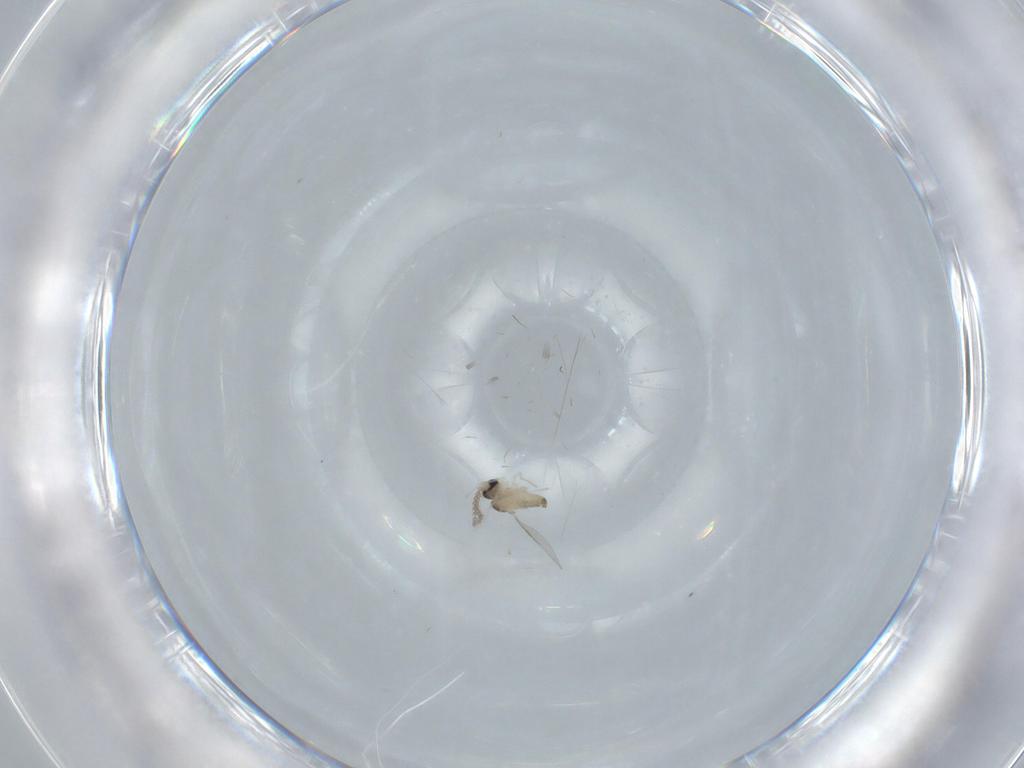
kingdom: Animalia
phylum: Arthropoda
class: Insecta
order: Diptera
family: Cecidomyiidae
